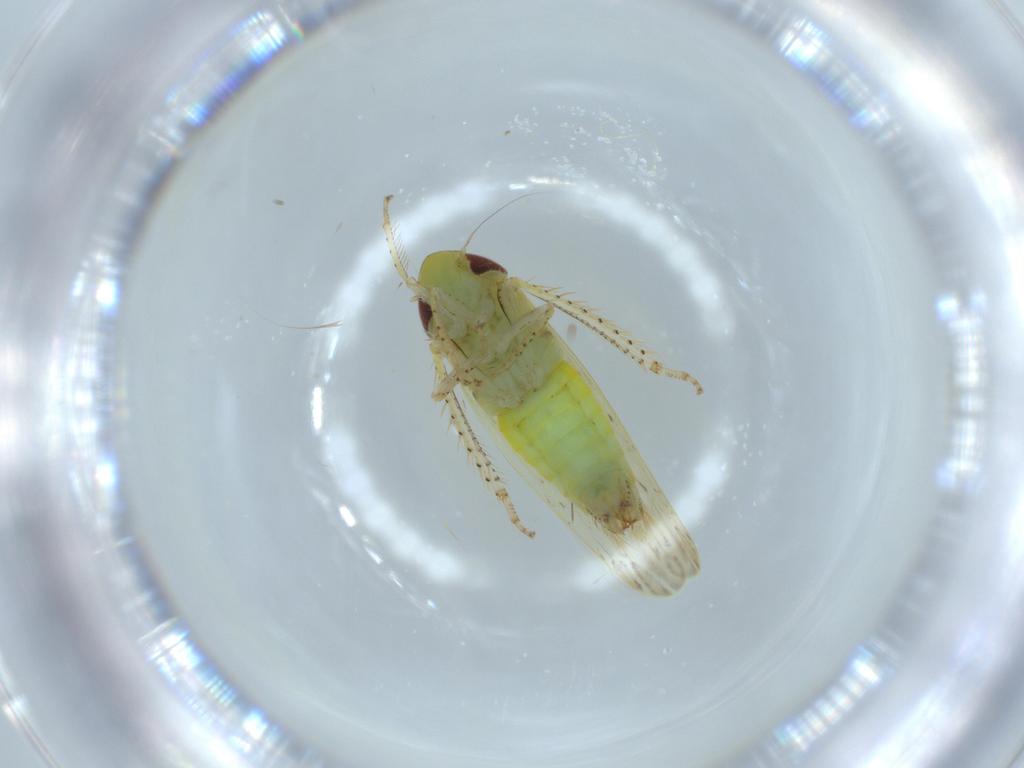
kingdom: Animalia
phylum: Arthropoda
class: Insecta
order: Hemiptera
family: Cicadellidae
